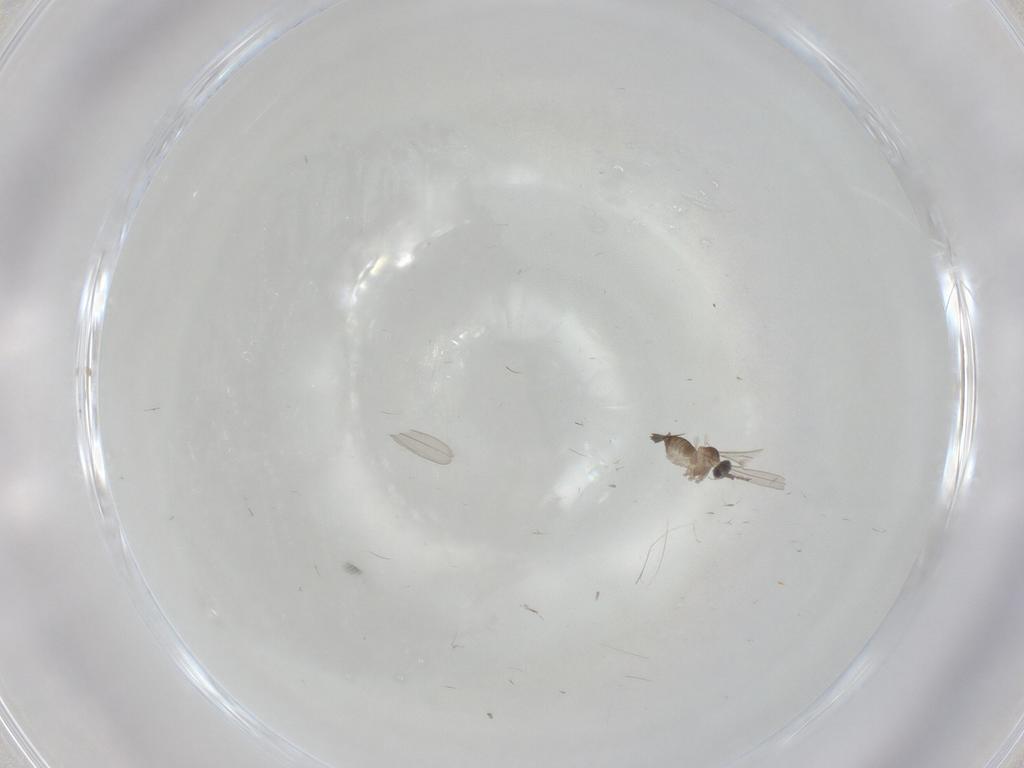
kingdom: Animalia
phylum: Arthropoda
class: Insecta
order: Diptera
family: Cecidomyiidae
